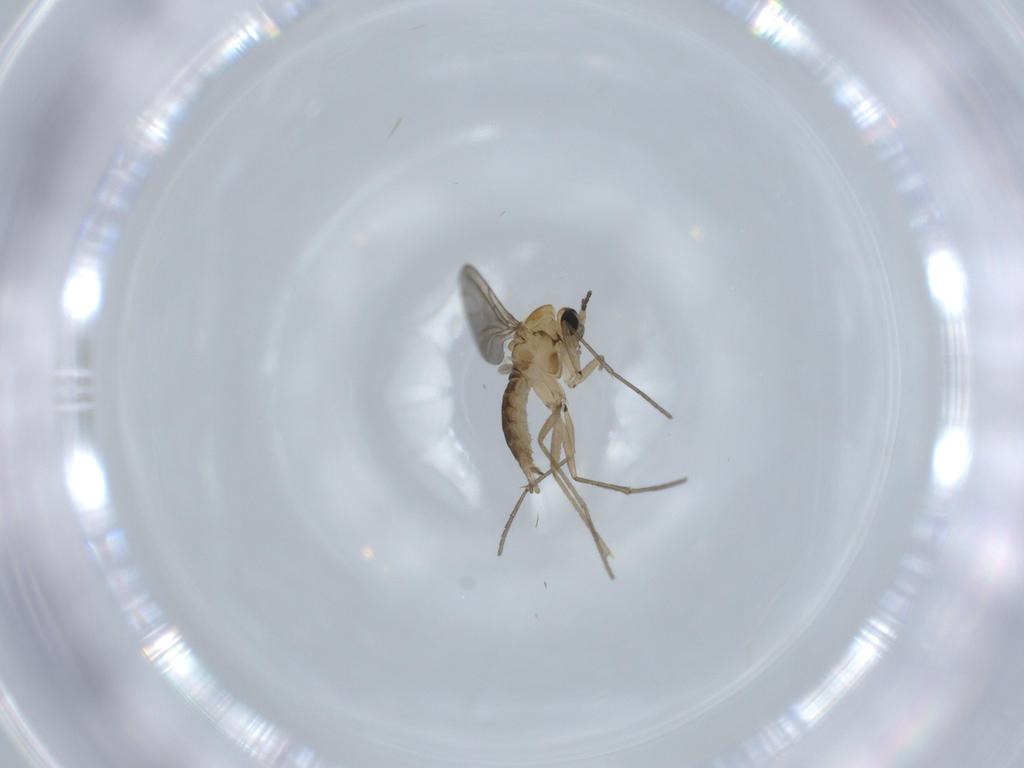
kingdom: Animalia
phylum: Arthropoda
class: Insecta
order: Diptera
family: Sciaridae
